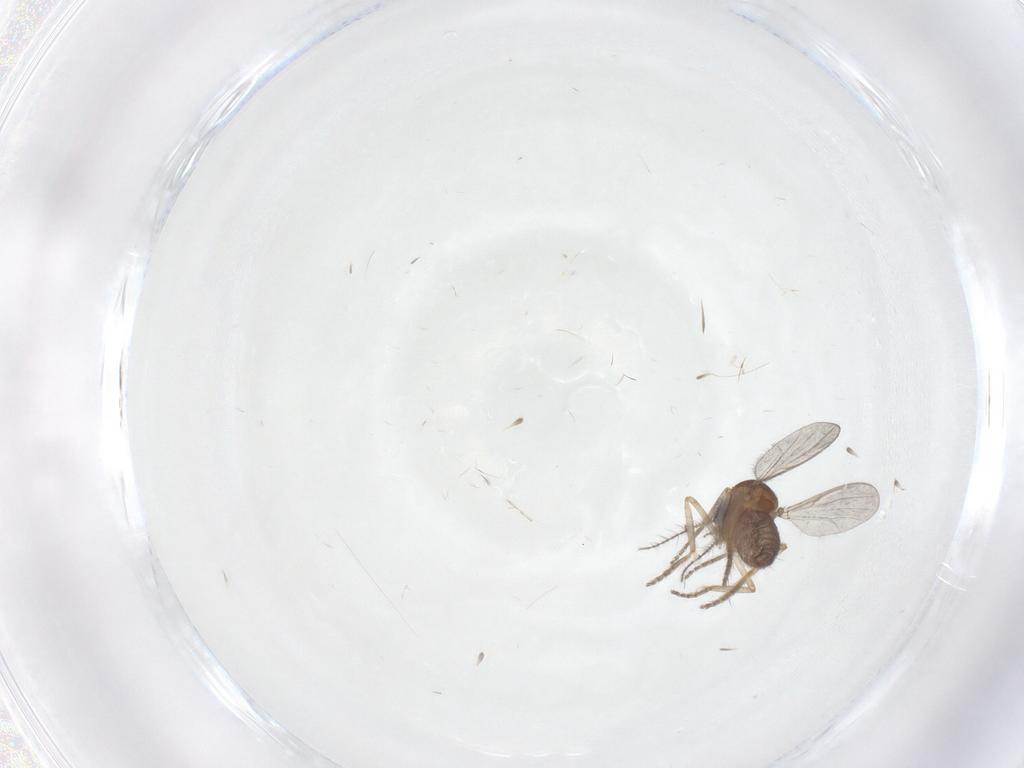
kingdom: Animalia
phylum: Arthropoda
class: Insecta
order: Diptera
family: Ceratopogonidae
